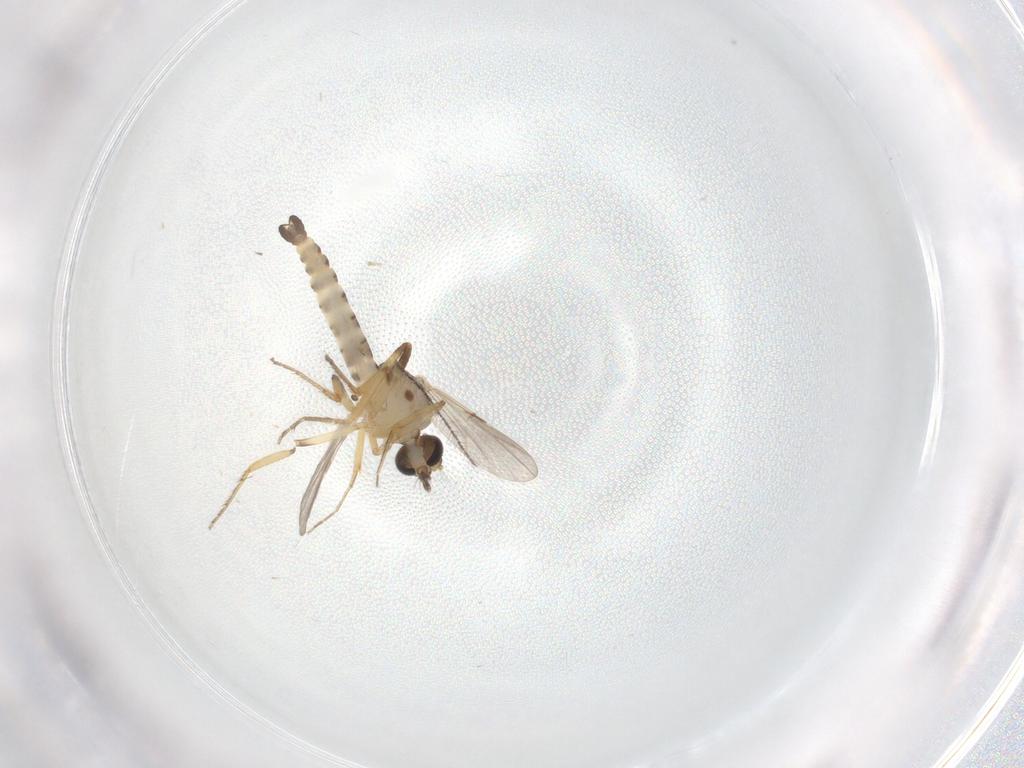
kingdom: Animalia
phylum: Arthropoda
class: Insecta
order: Diptera
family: Ceratopogonidae
